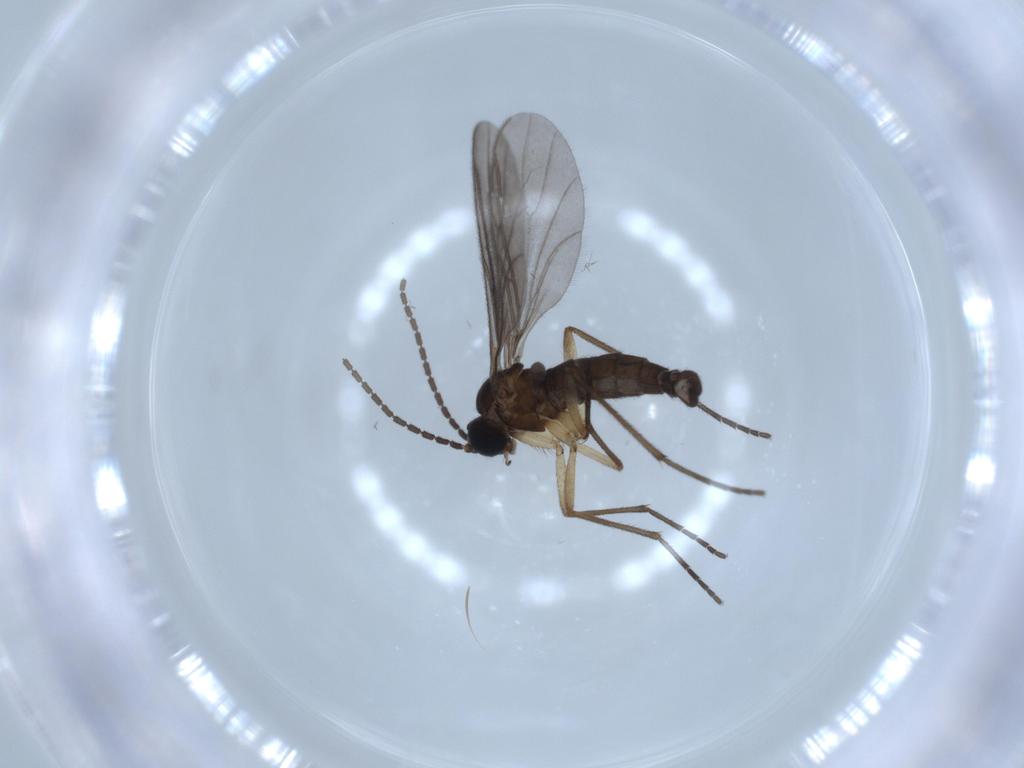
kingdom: Animalia
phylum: Arthropoda
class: Insecta
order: Diptera
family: Sciaridae
